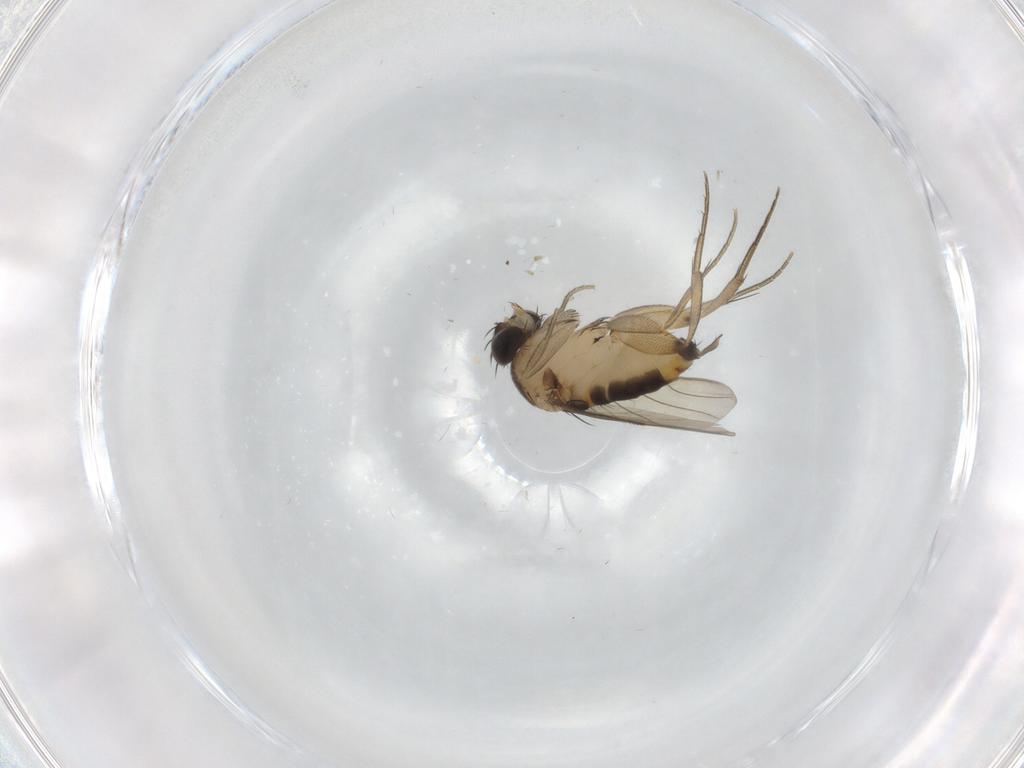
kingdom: Animalia
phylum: Arthropoda
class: Insecta
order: Diptera
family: Phoridae
